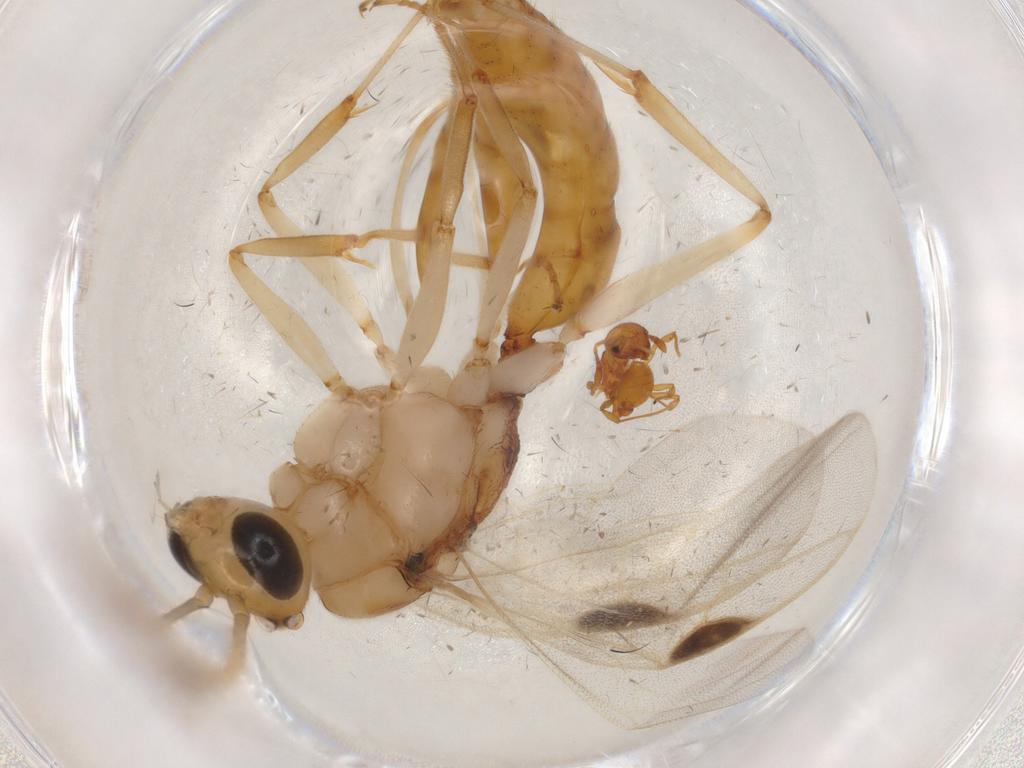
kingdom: Animalia
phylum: Arthropoda
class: Insecta
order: Hymenoptera
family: Formicidae
